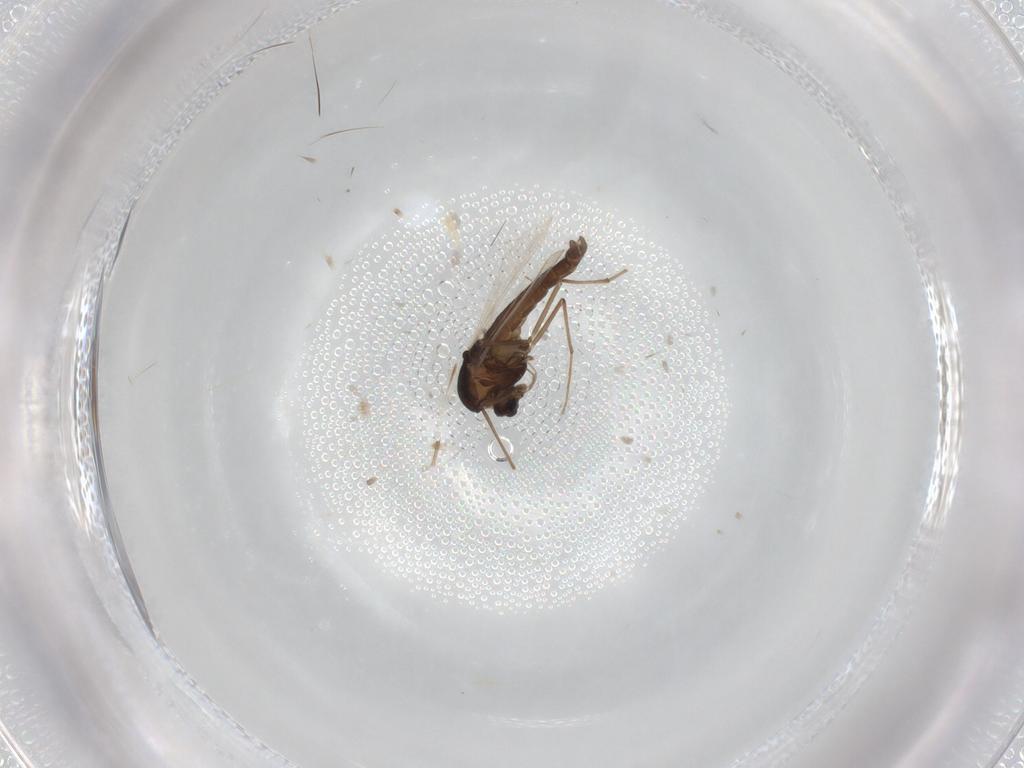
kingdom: Animalia
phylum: Arthropoda
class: Insecta
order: Diptera
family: Chironomidae
